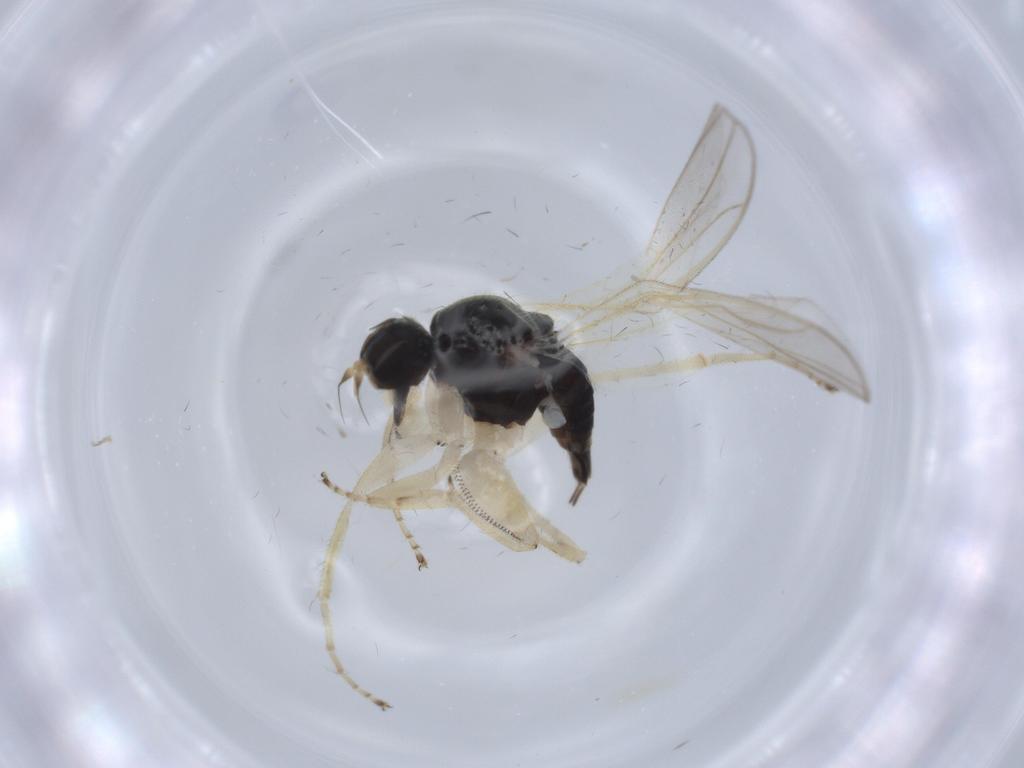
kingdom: Animalia
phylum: Arthropoda
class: Insecta
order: Diptera
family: Hybotidae
